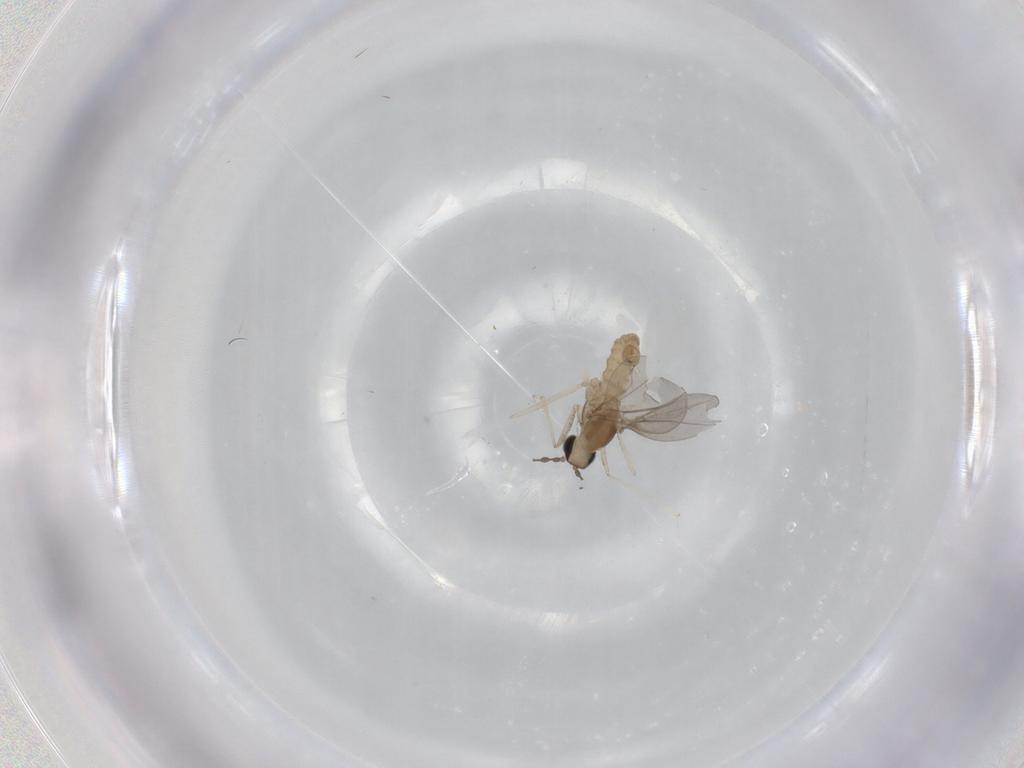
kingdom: Animalia
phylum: Arthropoda
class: Insecta
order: Diptera
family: Cecidomyiidae
